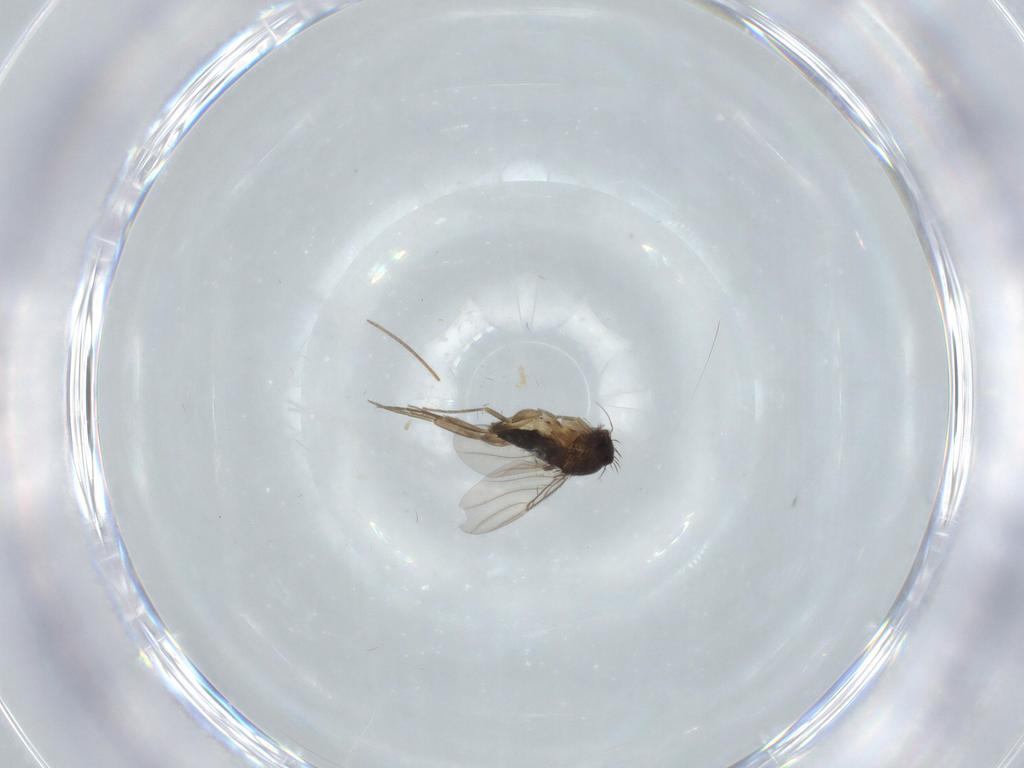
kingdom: Animalia
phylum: Arthropoda
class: Insecta
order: Diptera
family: Phoridae
